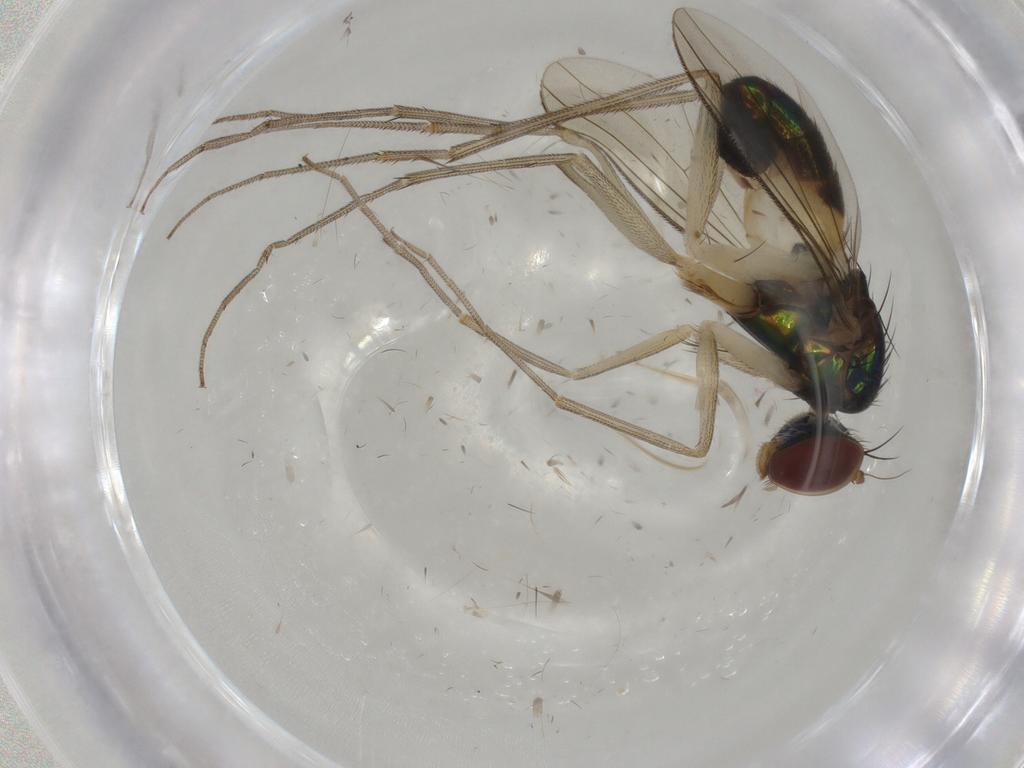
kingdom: Animalia
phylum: Arthropoda
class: Insecta
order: Diptera
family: Dolichopodidae
